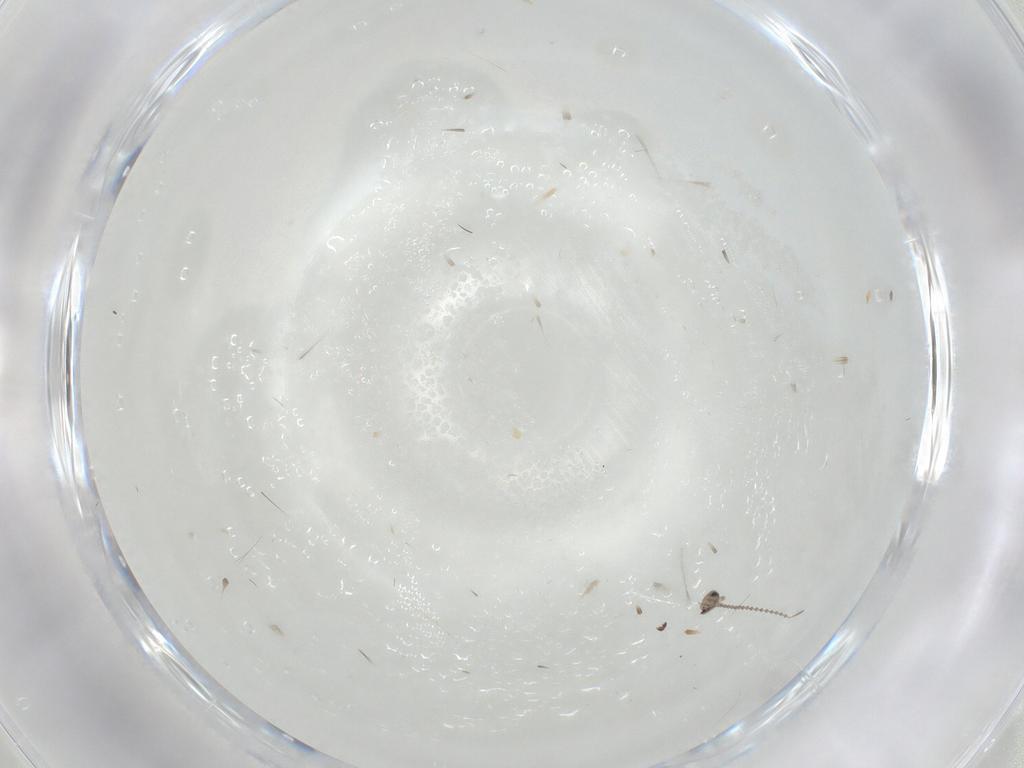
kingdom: Animalia
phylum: Arthropoda
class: Insecta
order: Diptera
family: Cecidomyiidae
